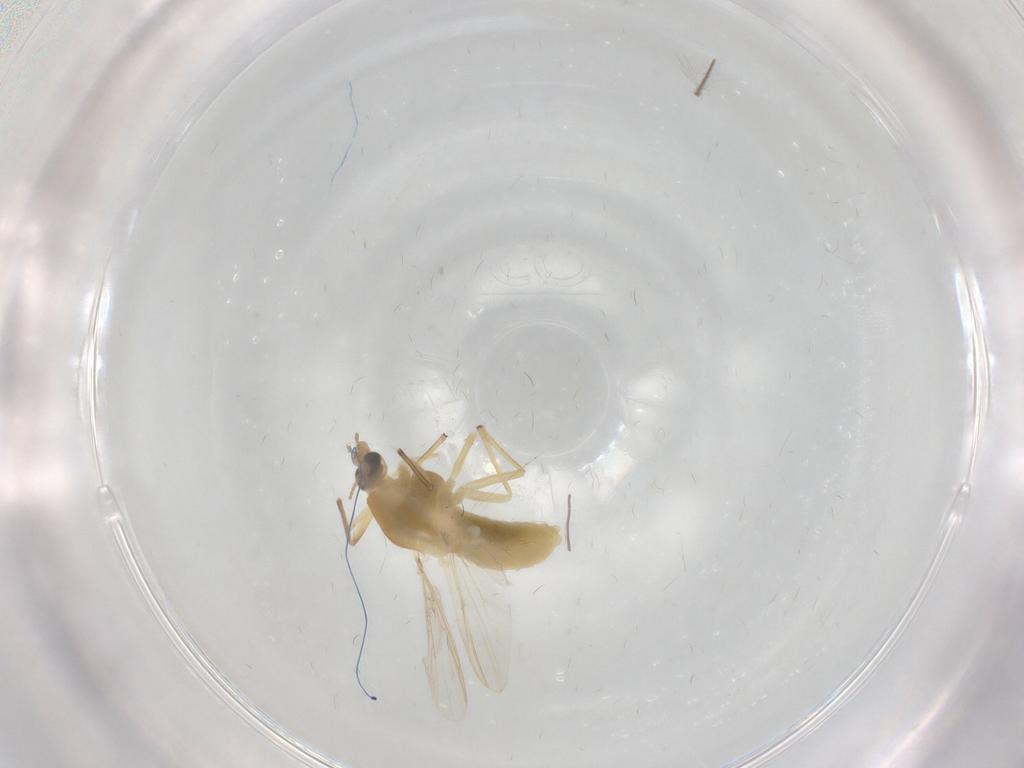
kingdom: Animalia
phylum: Arthropoda
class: Insecta
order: Diptera
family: Chironomidae
